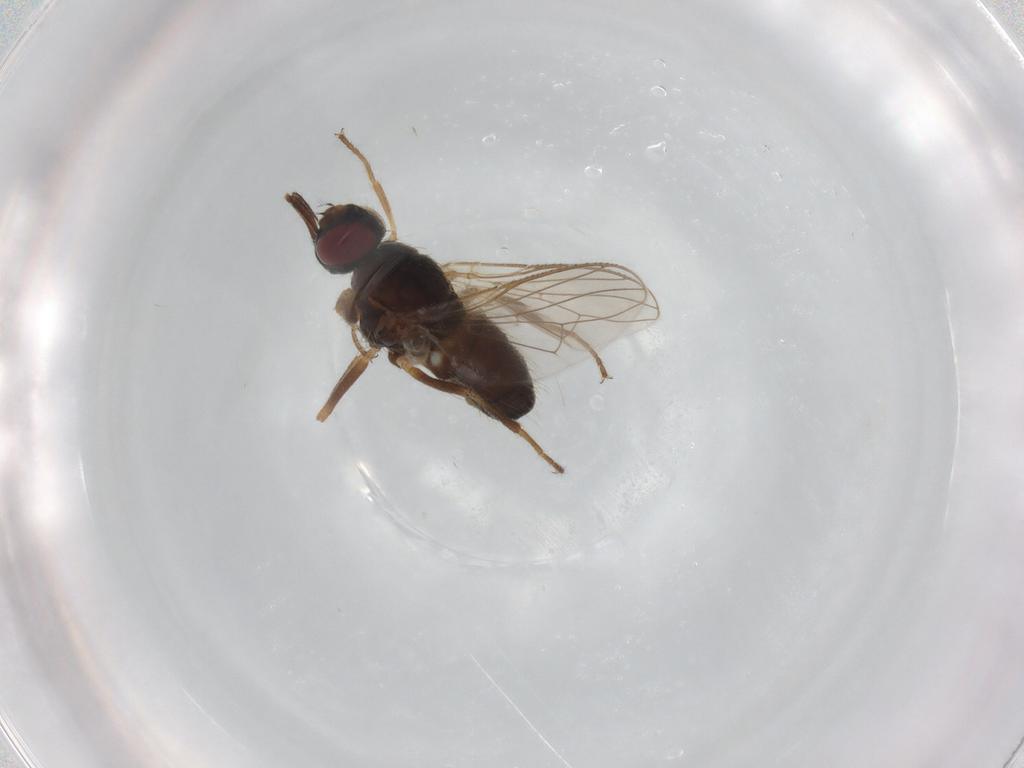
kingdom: Animalia
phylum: Arthropoda
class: Insecta
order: Diptera
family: Muscidae
